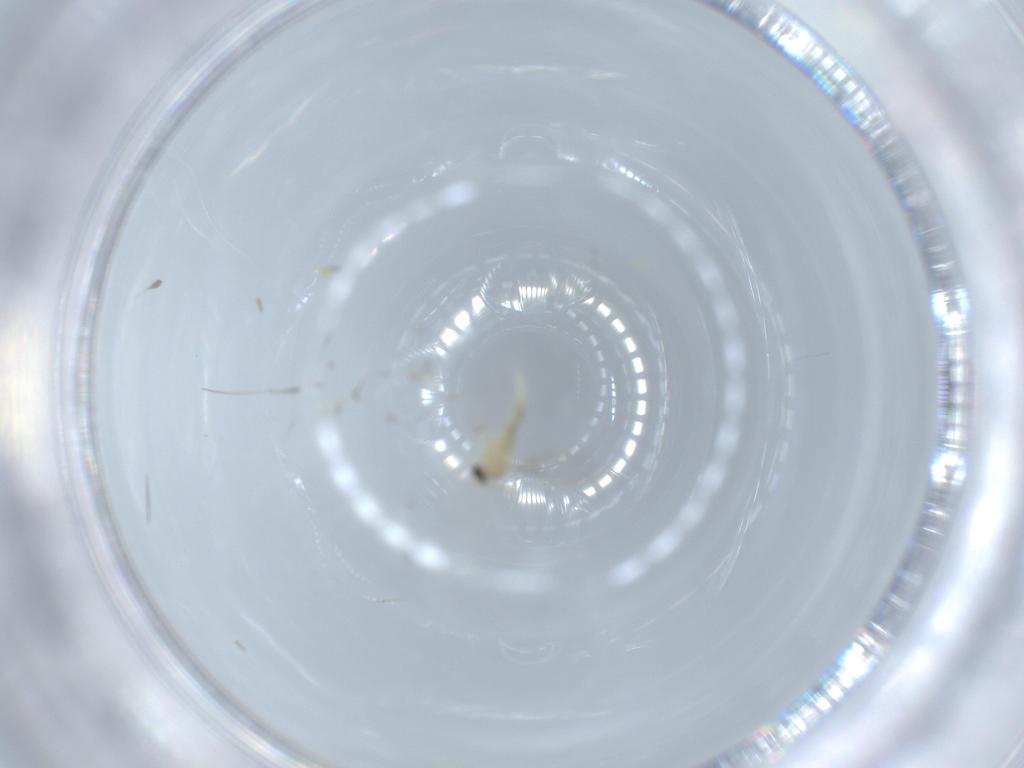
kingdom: Animalia
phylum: Arthropoda
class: Insecta
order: Diptera
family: Cecidomyiidae
